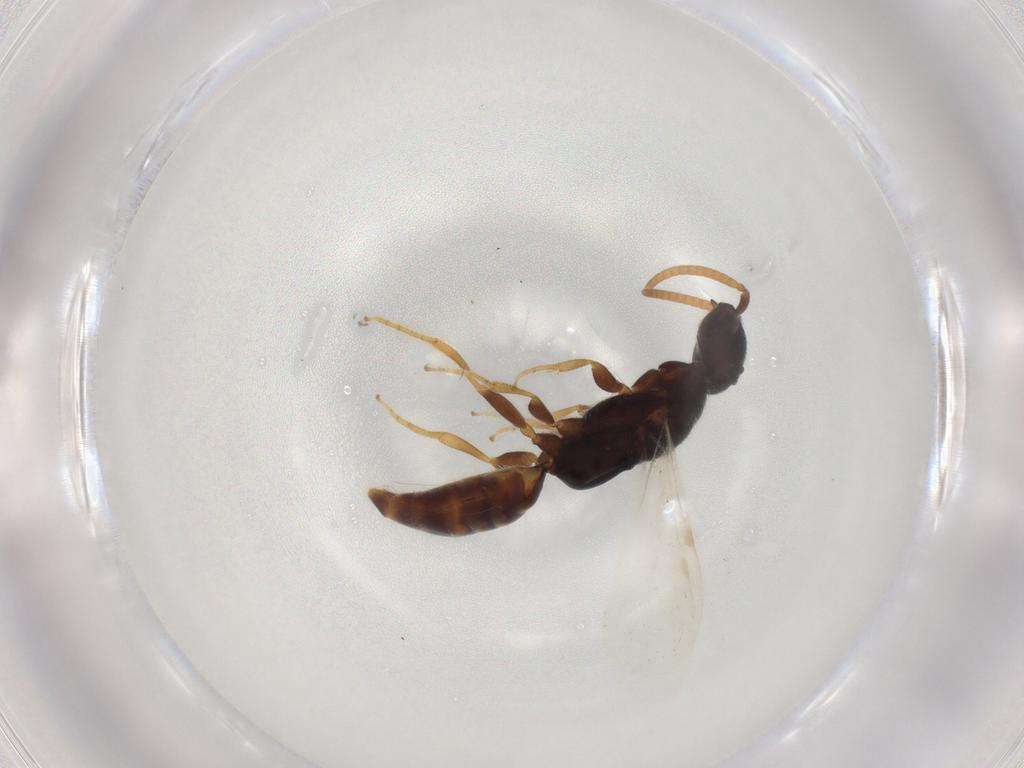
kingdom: Animalia
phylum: Arthropoda
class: Insecta
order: Hymenoptera
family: Bethylidae
